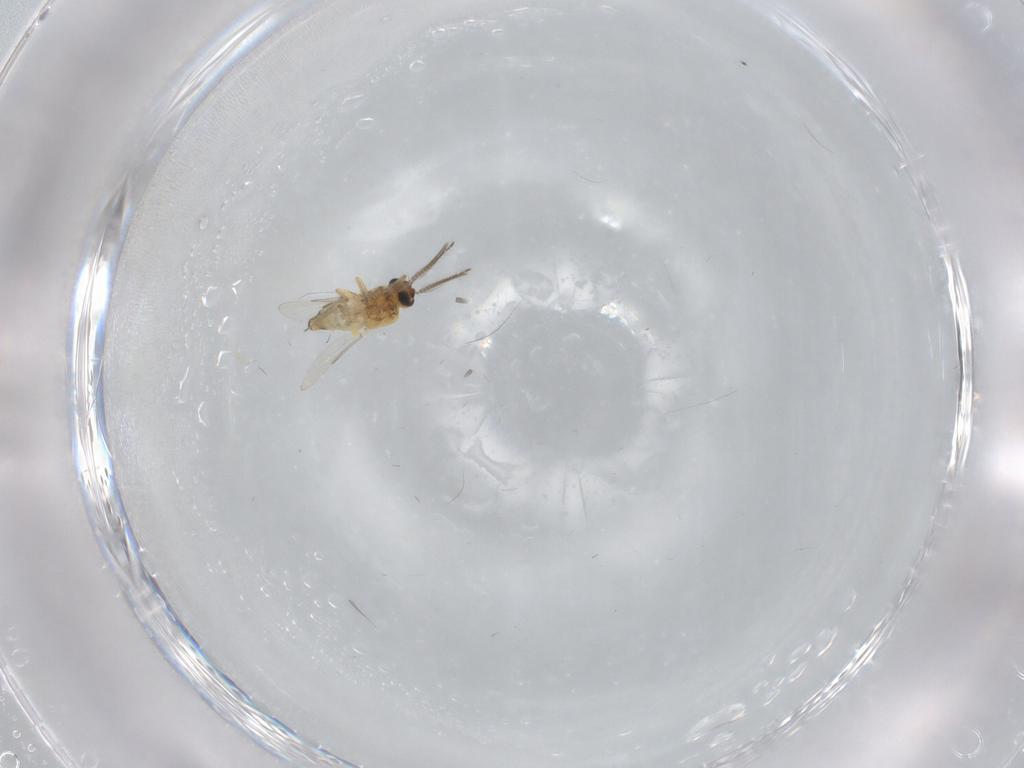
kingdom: Animalia
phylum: Arthropoda
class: Insecta
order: Diptera
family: Ceratopogonidae
